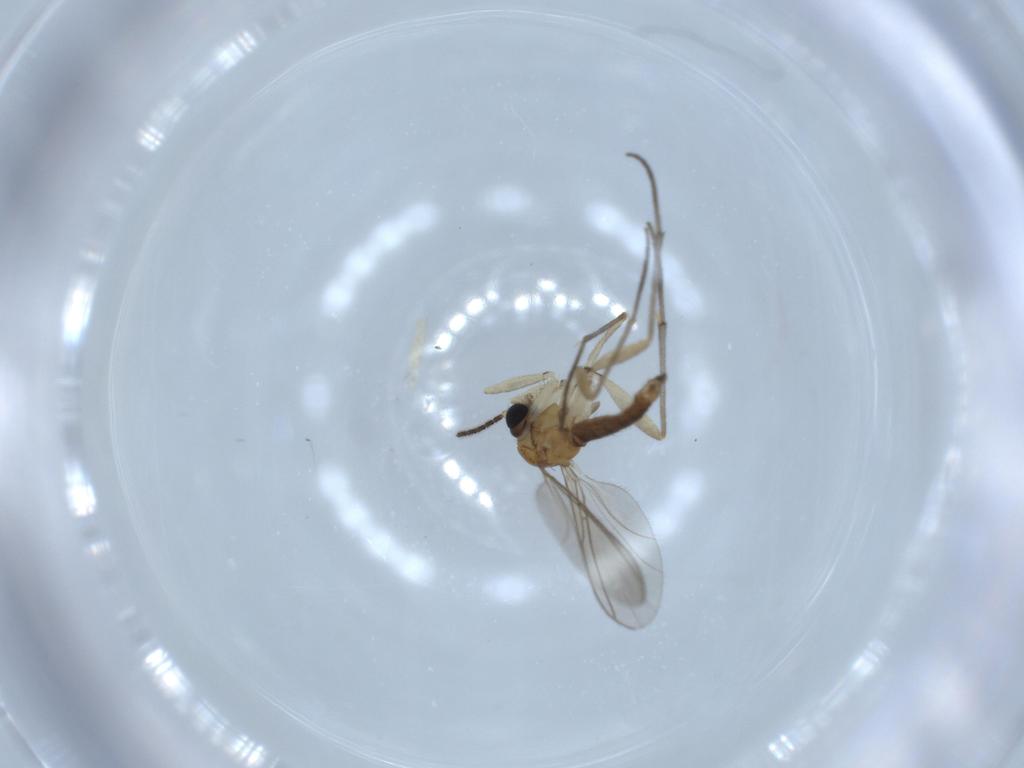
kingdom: Animalia
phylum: Arthropoda
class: Insecta
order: Diptera
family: Sciaridae
